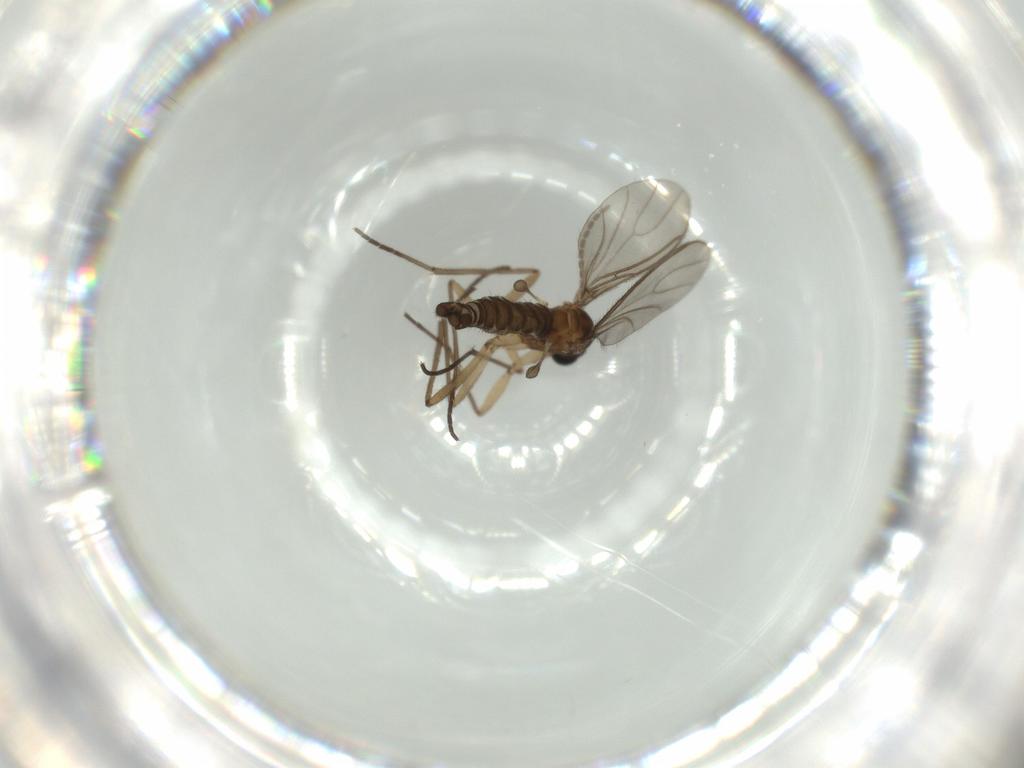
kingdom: Animalia
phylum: Arthropoda
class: Insecta
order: Diptera
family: Sciaridae
